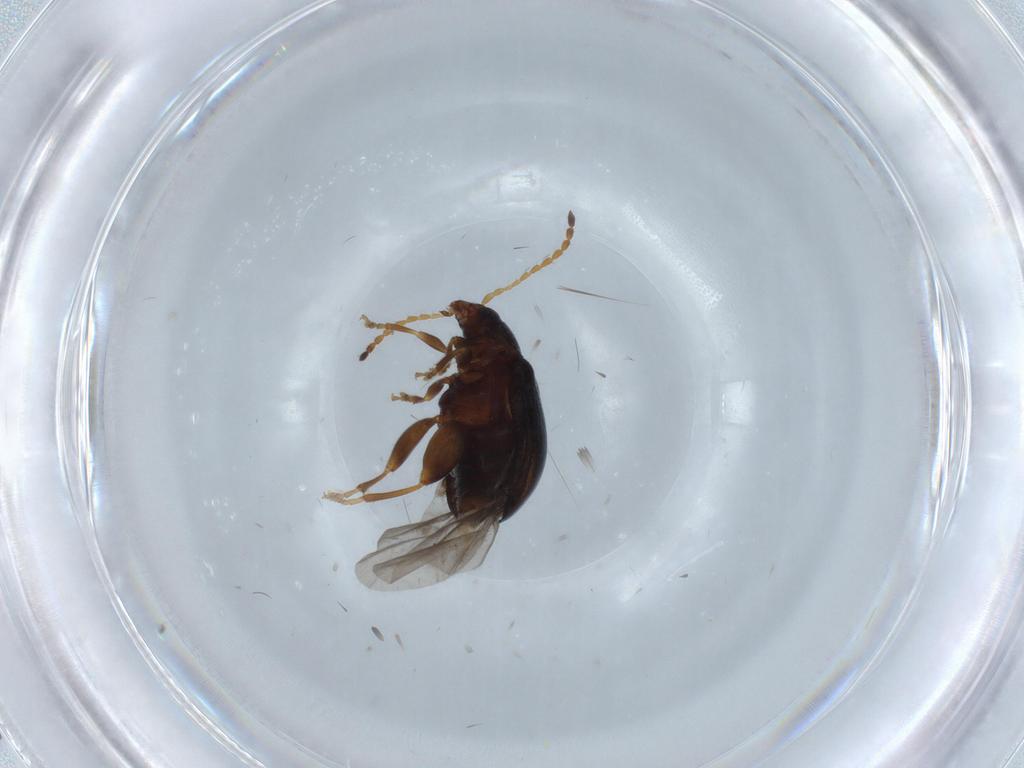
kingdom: Animalia
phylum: Arthropoda
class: Insecta
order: Coleoptera
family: Chrysomelidae
